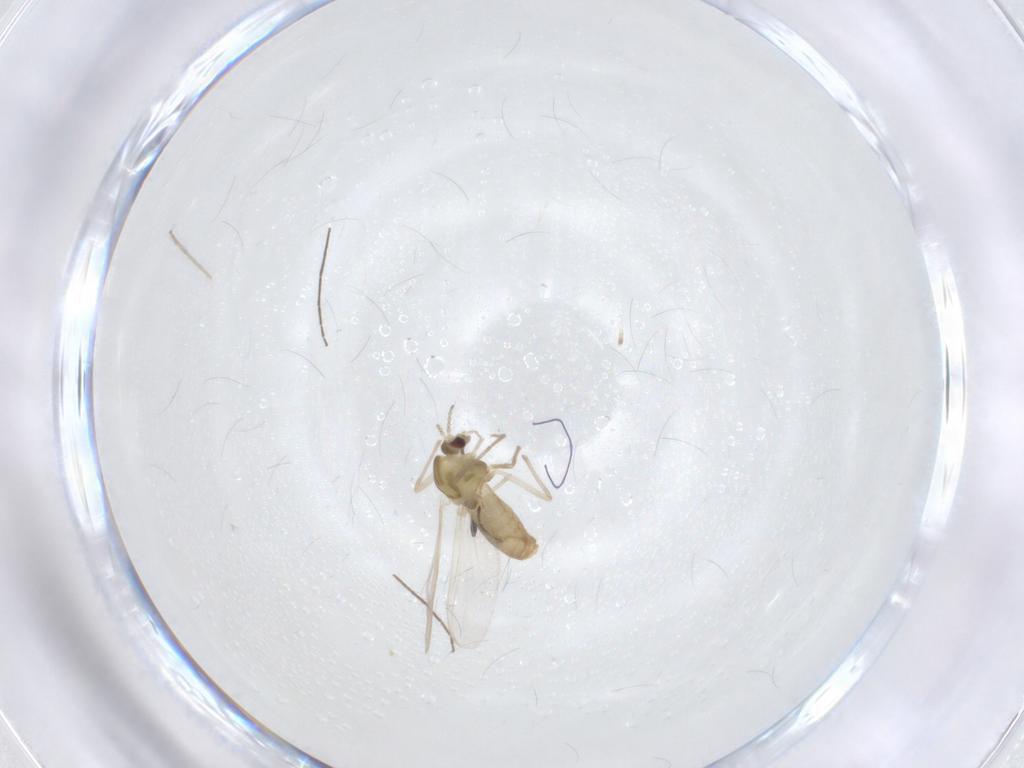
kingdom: Animalia
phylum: Arthropoda
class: Insecta
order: Diptera
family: Chironomidae
